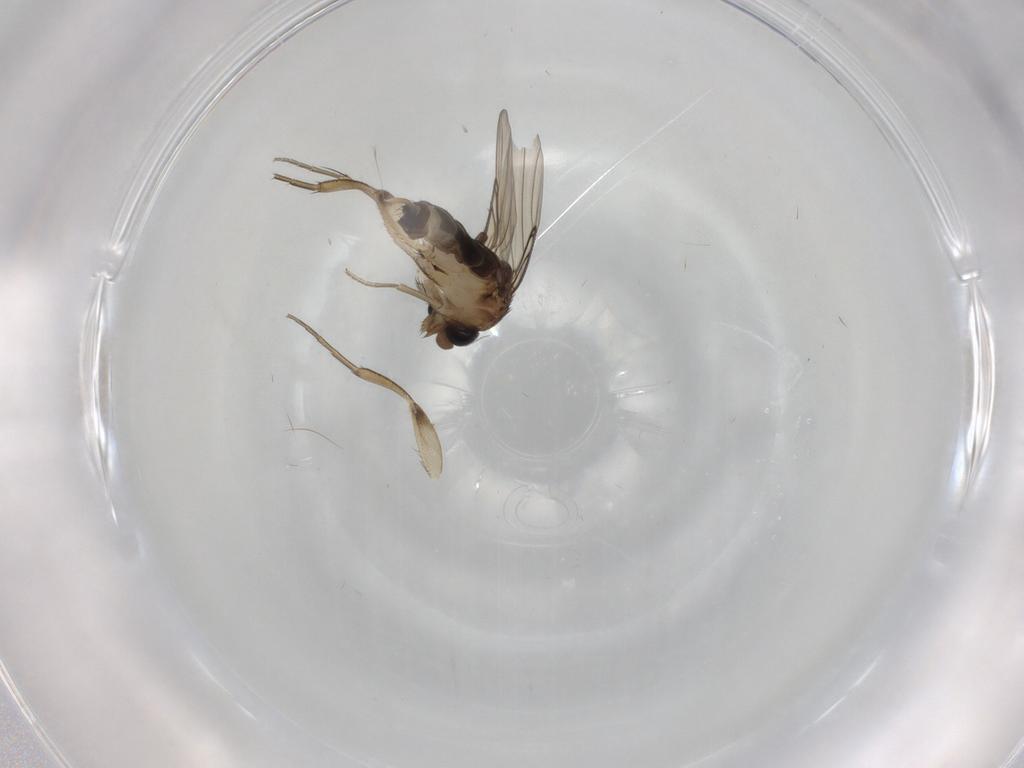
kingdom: Animalia
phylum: Arthropoda
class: Insecta
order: Diptera
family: Phoridae
